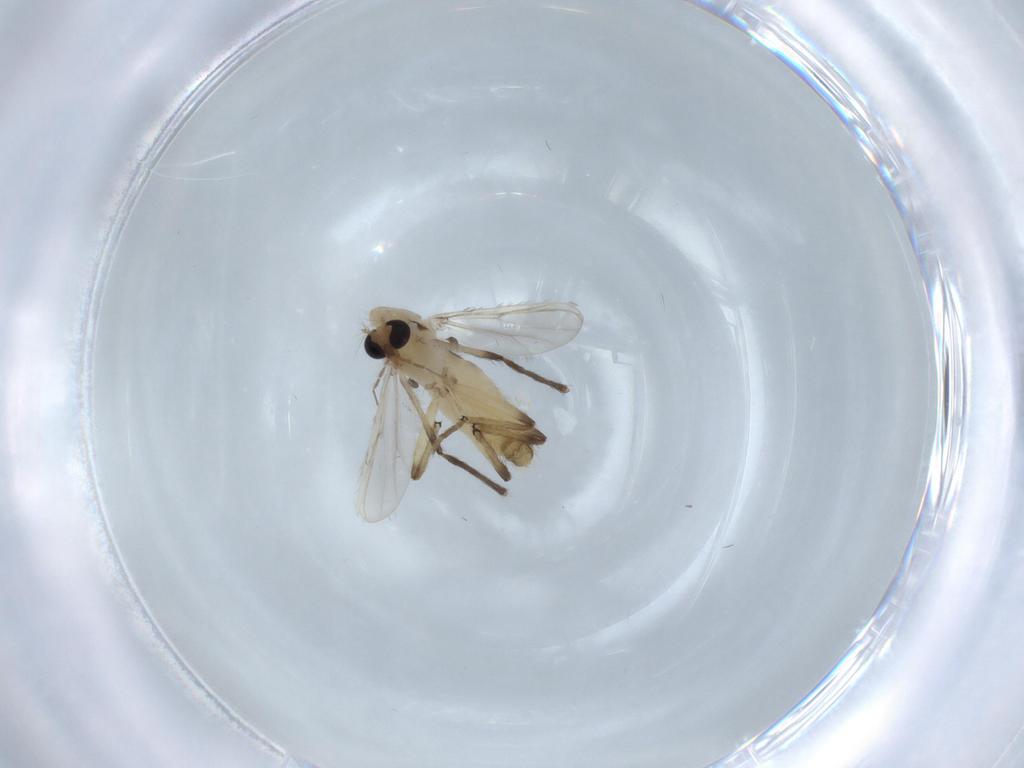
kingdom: Animalia
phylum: Arthropoda
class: Insecta
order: Diptera
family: Chironomidae
